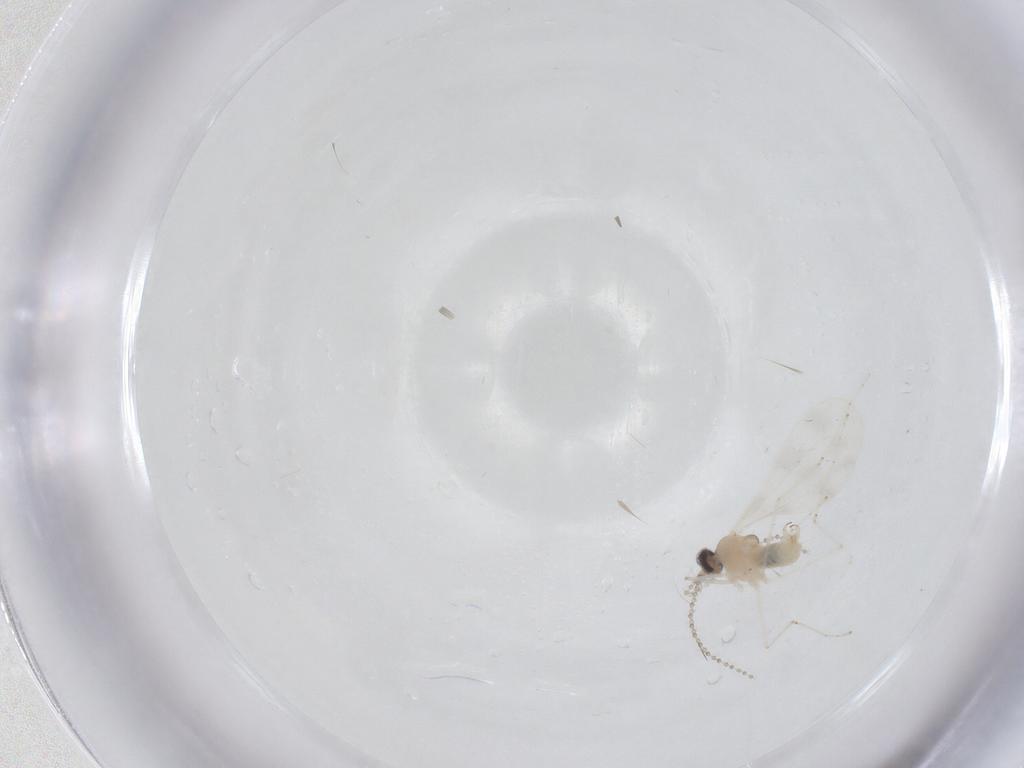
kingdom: Animalia
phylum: Arthropoda
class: Insecta
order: Diptera
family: Cecidomyiidae
